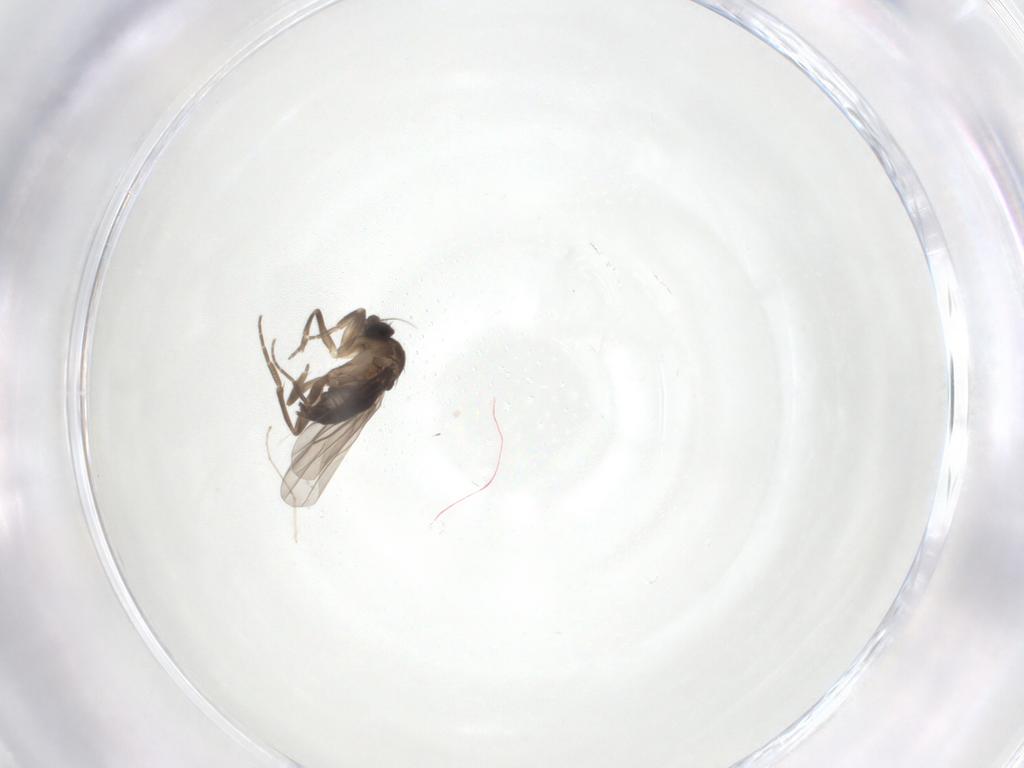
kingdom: Animalia
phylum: Arthropoda
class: Insecta
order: Diptera
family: Phoridae
